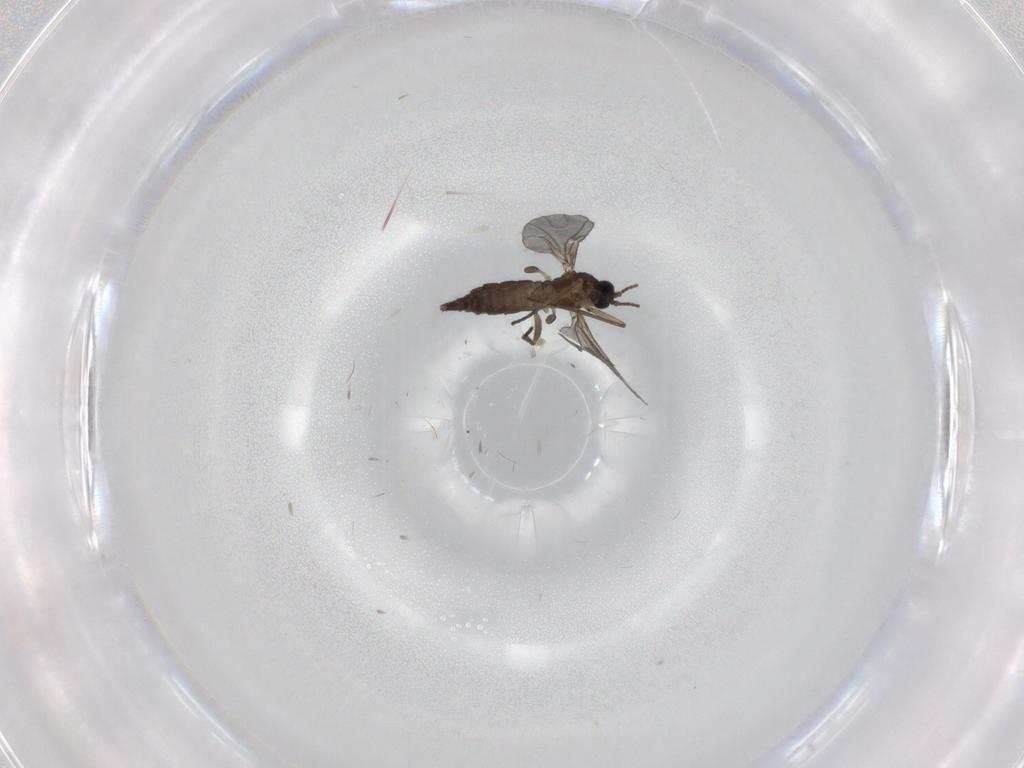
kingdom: Animalia
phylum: Arthropoda
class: Insecta
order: Diptera
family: Sciaridae
